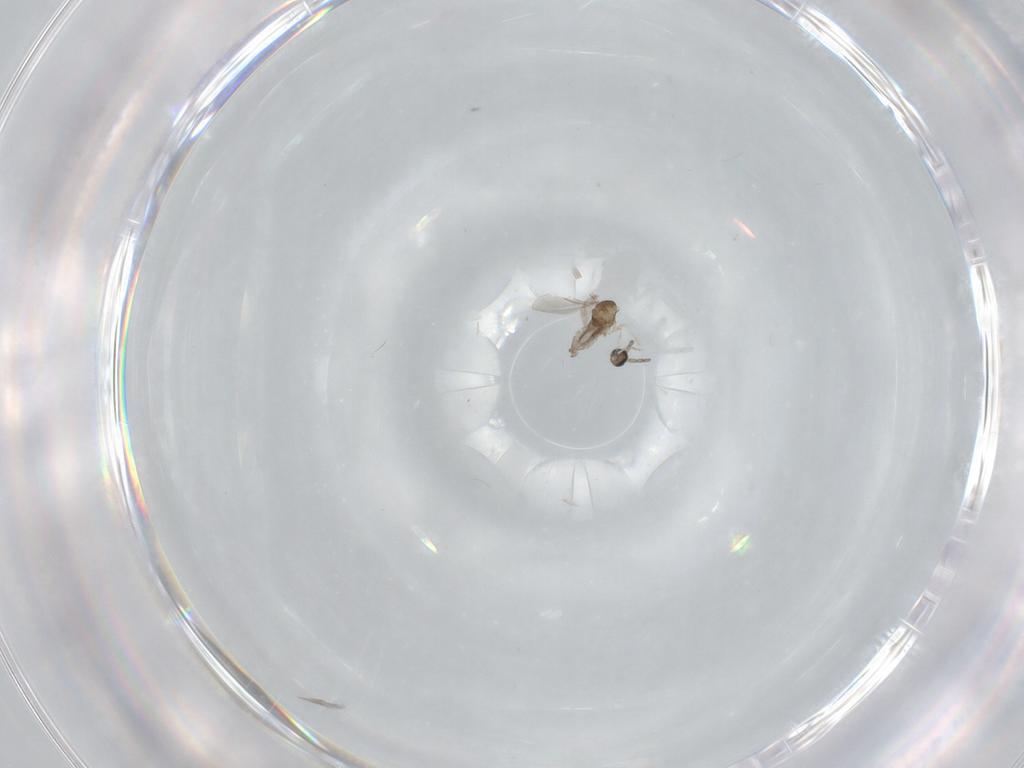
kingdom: Animalia
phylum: Arthropoda
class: Insecta
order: Diptera
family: Cecidomyiidae
